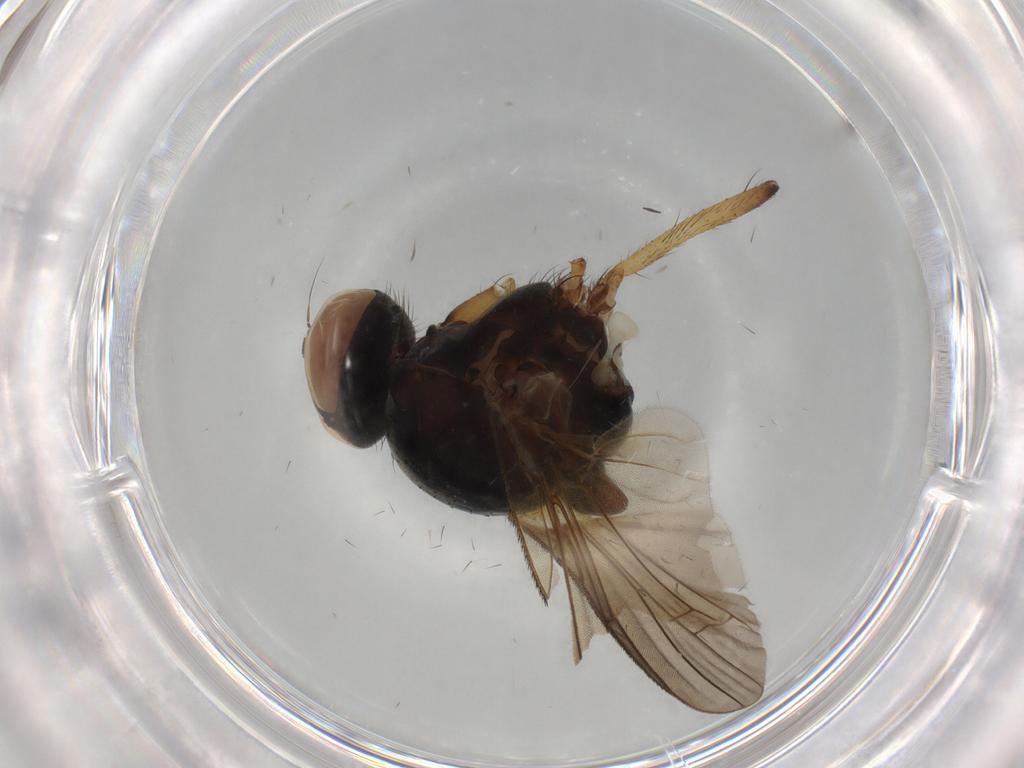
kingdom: Animalia
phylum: Arthropoda
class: Insecta
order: Diptera
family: Anthomyiidae
